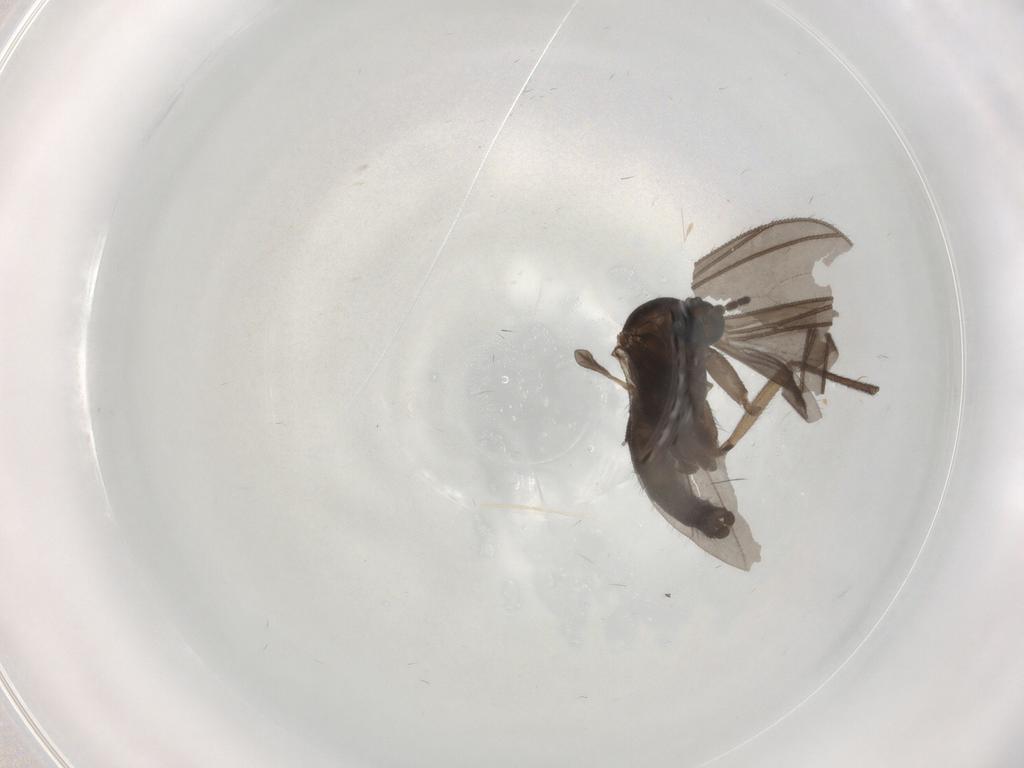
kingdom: Animalia
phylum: Arthropoda
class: Insecta
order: Diptera
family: Sciaridae
